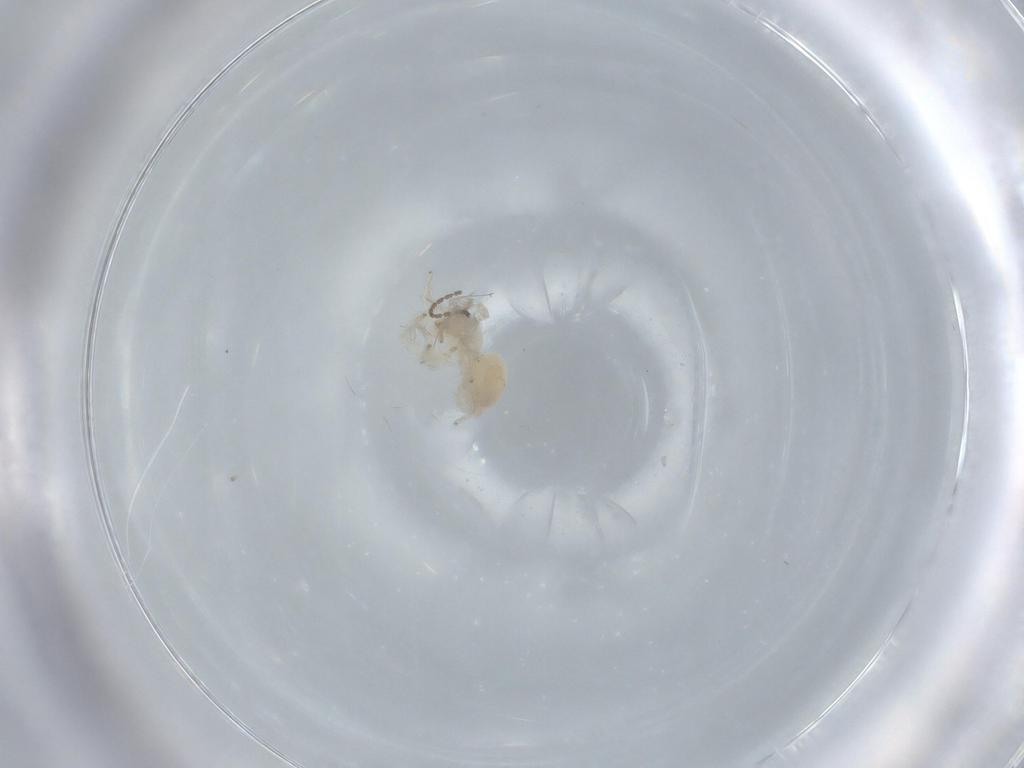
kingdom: Animalia
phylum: Arthropoda
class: Arachnida
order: Araneae
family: Oonopidae
